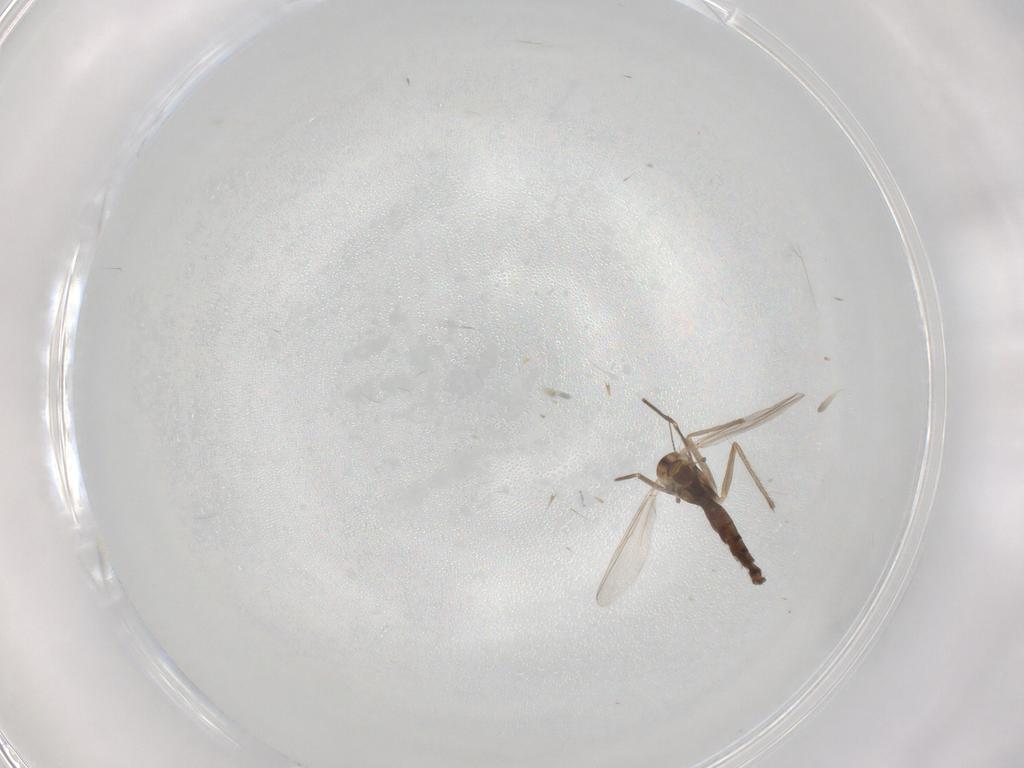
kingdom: Animalia
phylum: Arthropoda
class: Insecta
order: Diptera
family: Chironomidae
